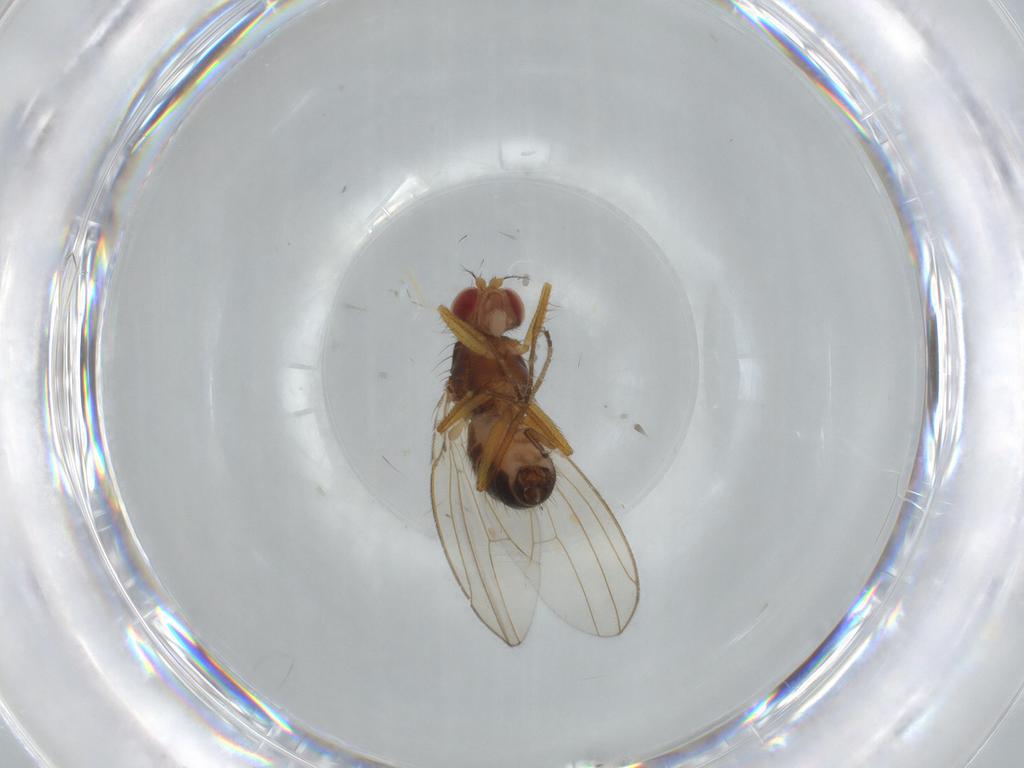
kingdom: Animalia
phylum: Arthropoda
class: Insecta
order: Diptera
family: Drosophilidae
